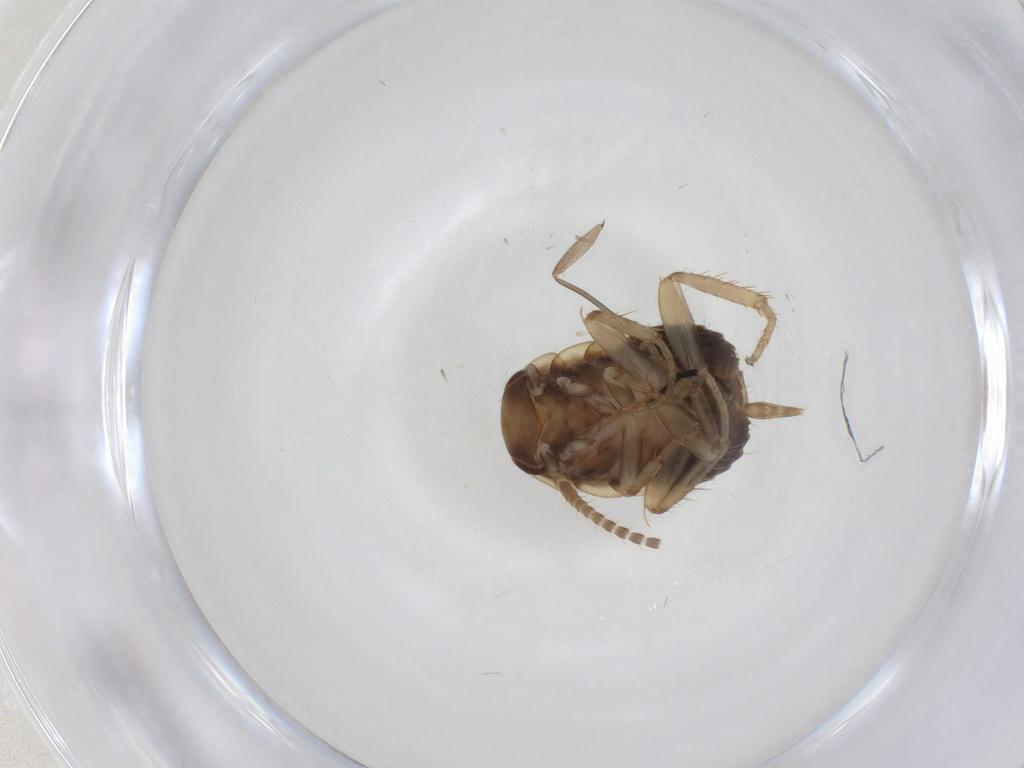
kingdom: Animalia
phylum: Arthropoda
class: Insecta
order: Blattodea
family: Ectobiidae
